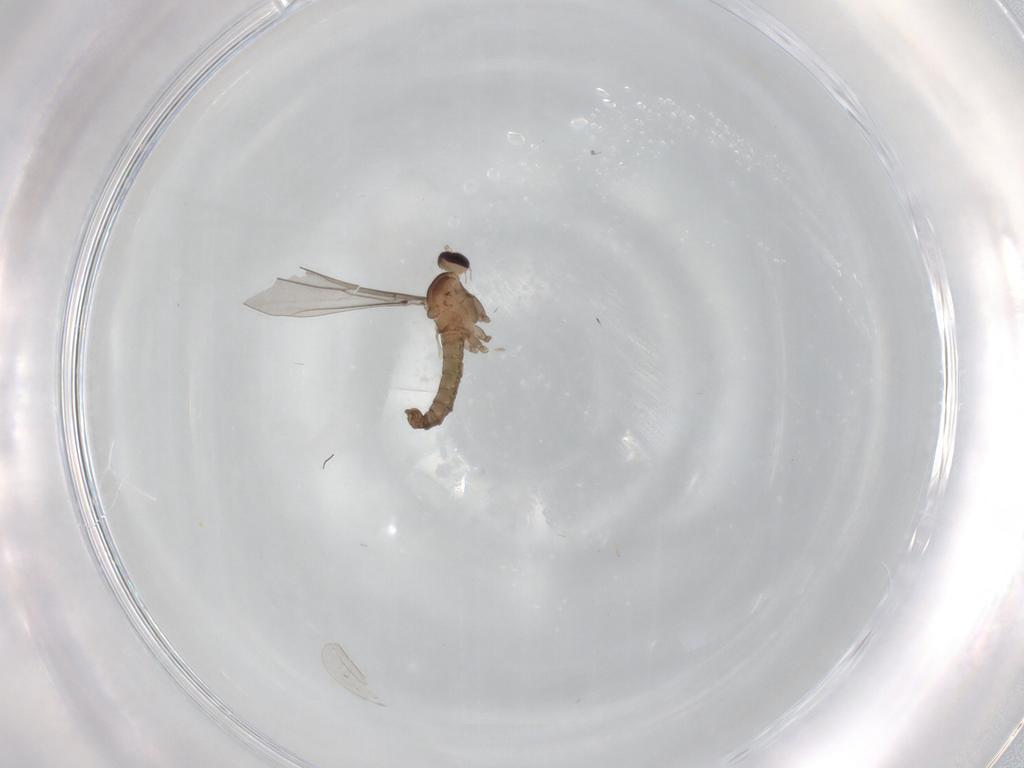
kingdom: Animalia
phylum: Arthropoda
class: Insecta
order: Diptera
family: Cecidomyiidae
